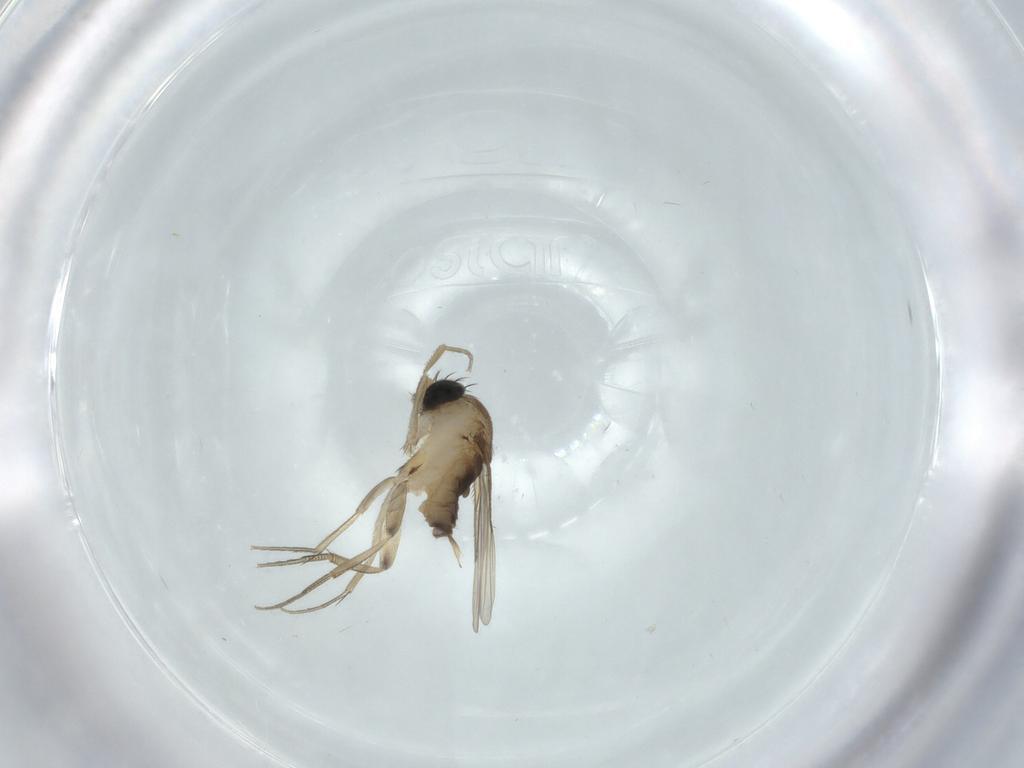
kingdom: Animalia
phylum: Arthropoda
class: Insecta
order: Diptera
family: Phoridae
